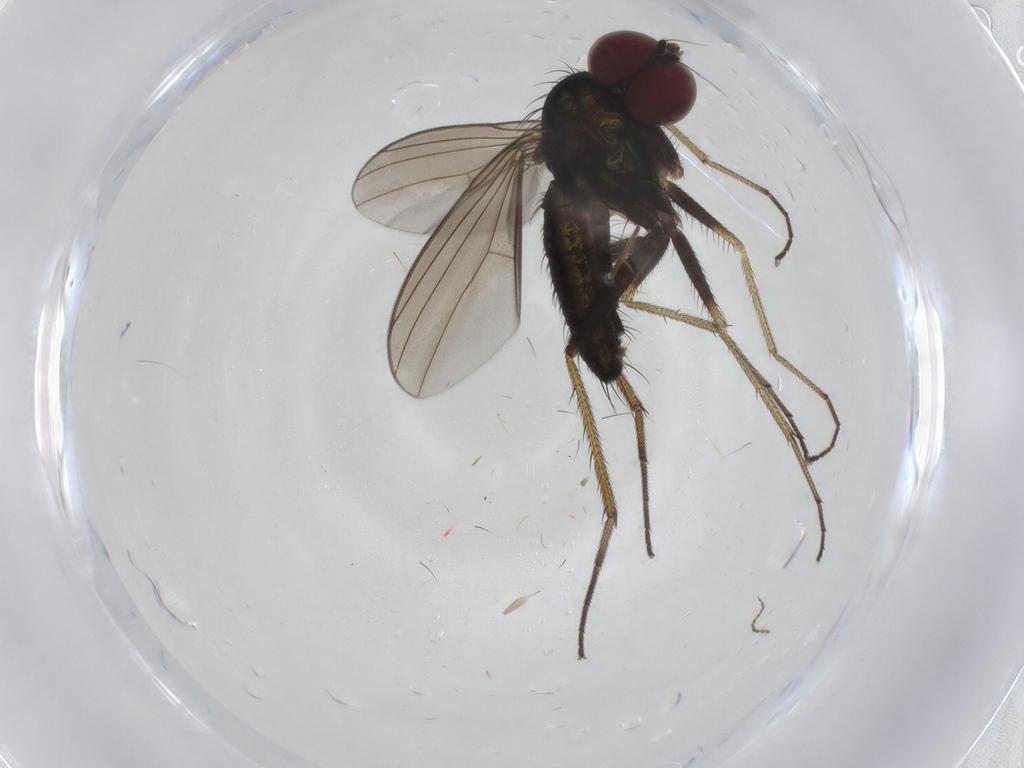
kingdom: Animalia
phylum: Arthropoda
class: Insecta
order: Diptera
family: Dolichopodidae
